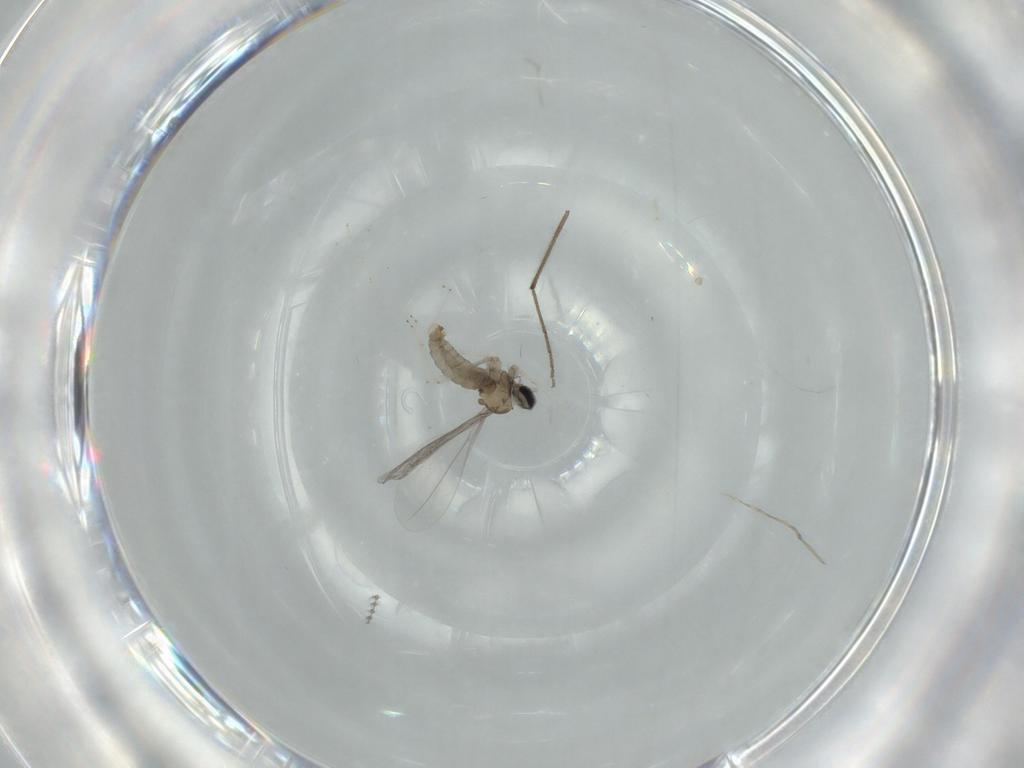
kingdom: Animalia
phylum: Arthropoda
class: Insecta
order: Diptera
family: Cecidomyiidae
